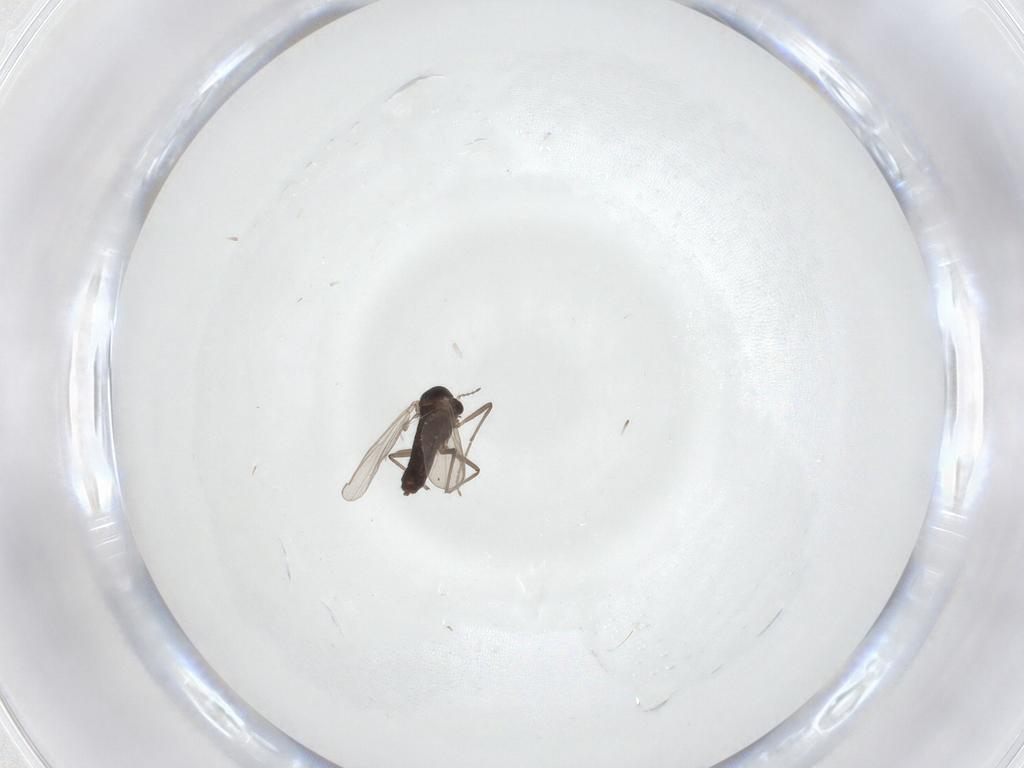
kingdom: Animalia
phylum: Arthropoda
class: Insecta
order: Diptera
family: Chironomidae
